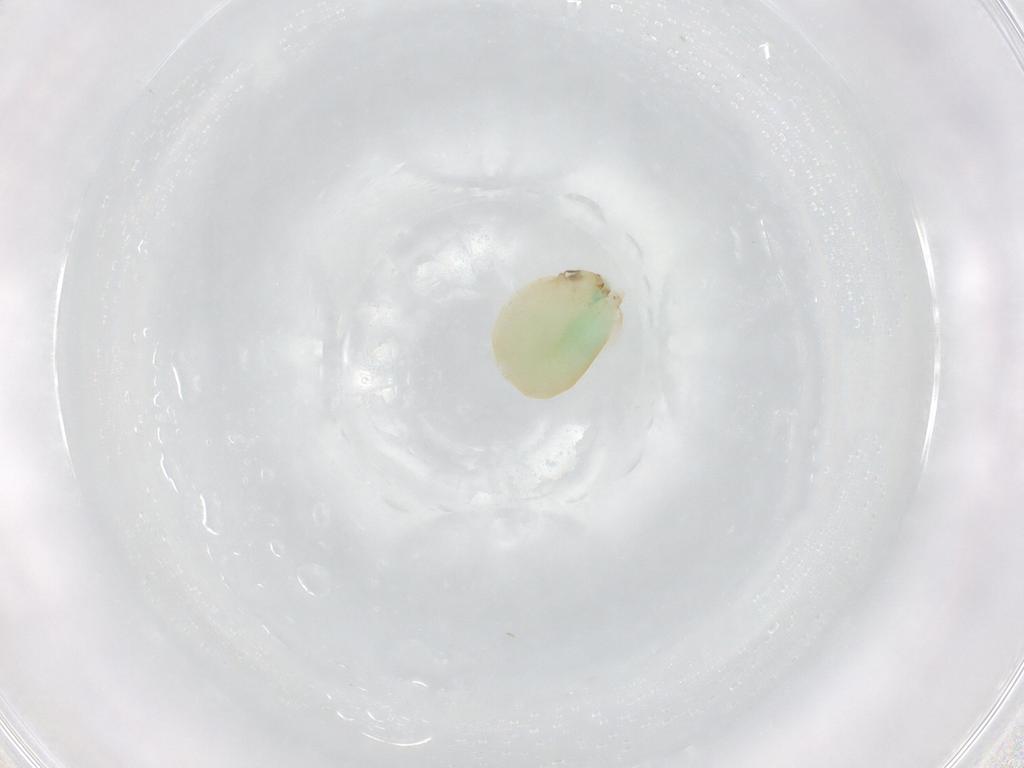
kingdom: Animalia
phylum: Arthropoda
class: Insecta
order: Hymenoptera
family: Dryinidae
